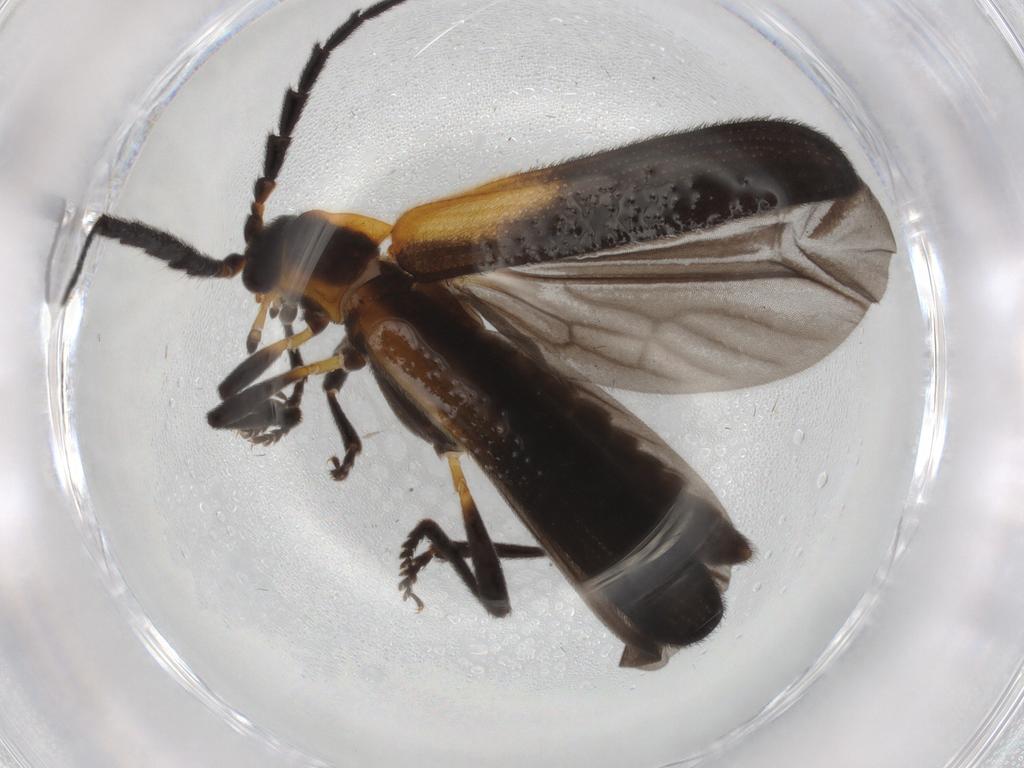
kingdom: Animalia
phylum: Arthropoda
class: Insecta
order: Coleoptera
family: Lycidae
